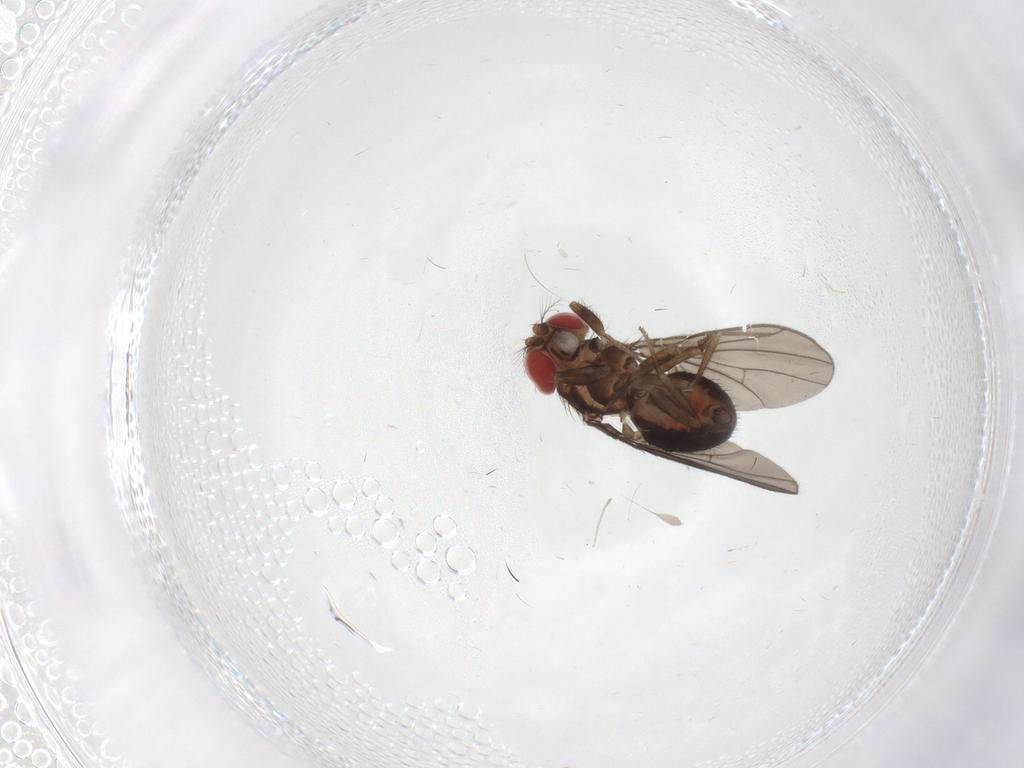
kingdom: Animalia
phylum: Arthropoda
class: Insecta
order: Diptera
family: Drosophilidae
